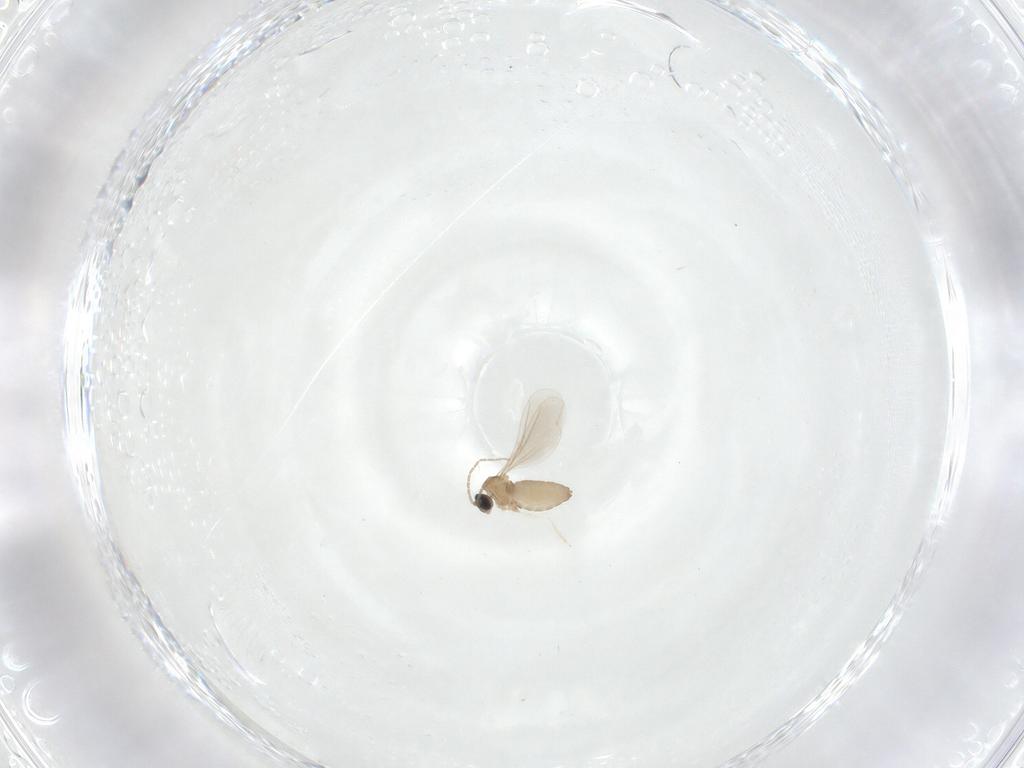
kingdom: Animalia
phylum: Arthropoda
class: Insecta
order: Diptera
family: Cecidomyiidae
